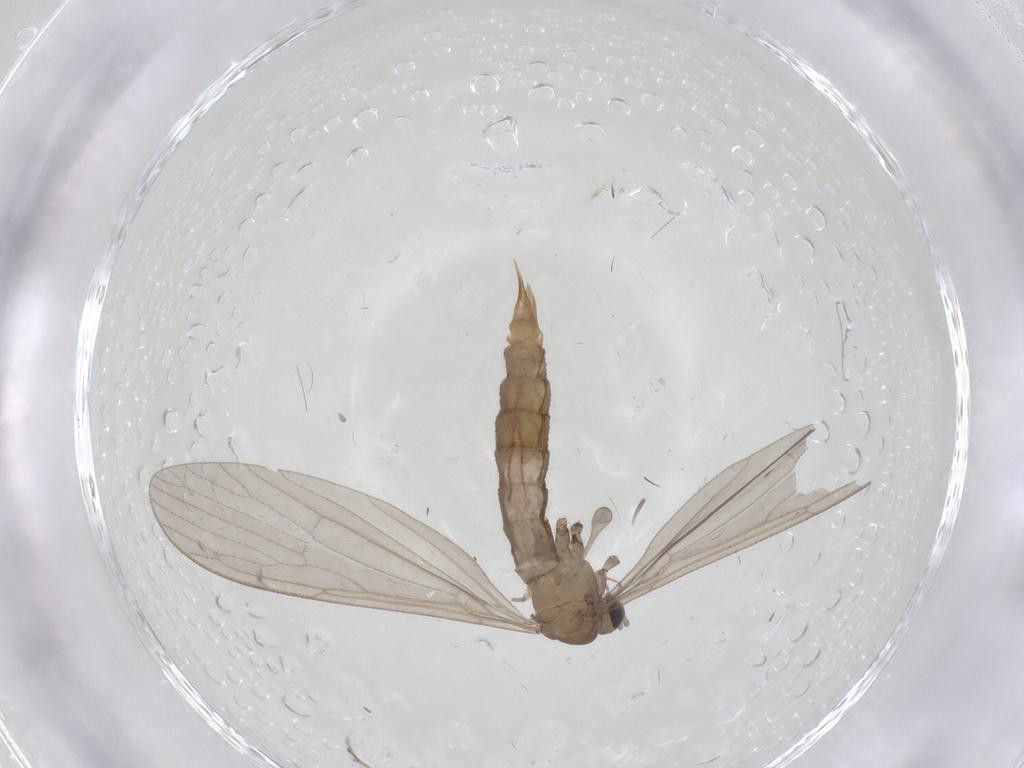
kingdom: Animalia
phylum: Arthropoda
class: Insecta
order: Diptera
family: Limoniidae
